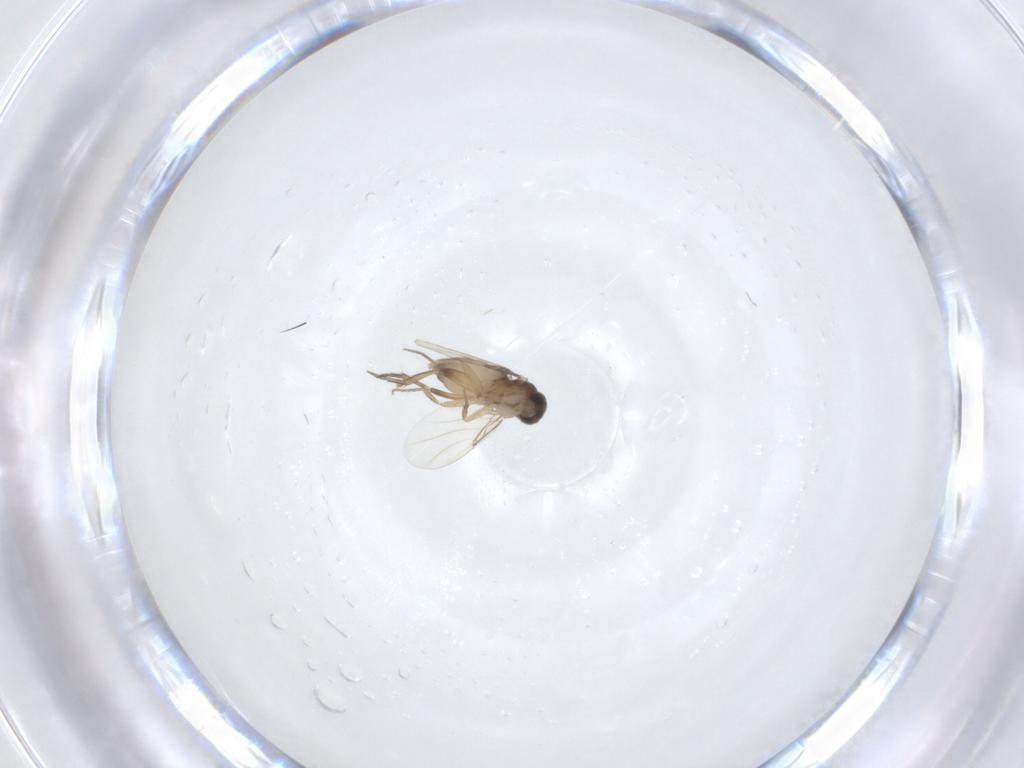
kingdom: Animalia
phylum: Arthropoda
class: Insecta
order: Diptera
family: Phoridae
